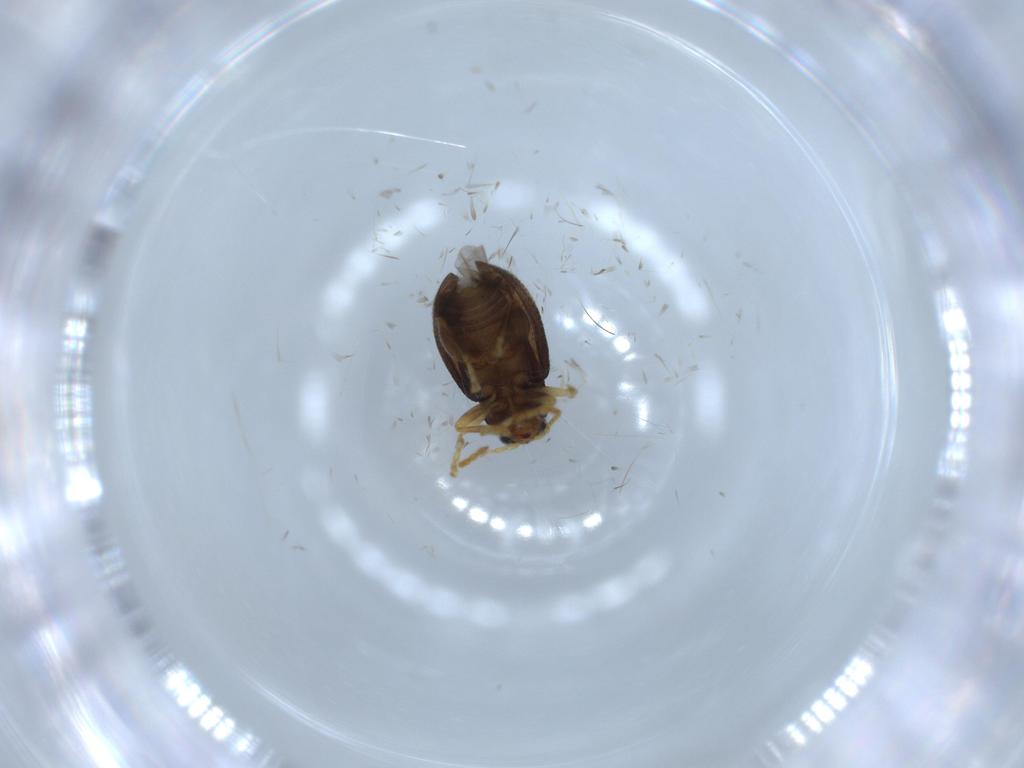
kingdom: Animalia
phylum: Arthropoda
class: Insecta
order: Coleoptera
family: Chrysomelidae
